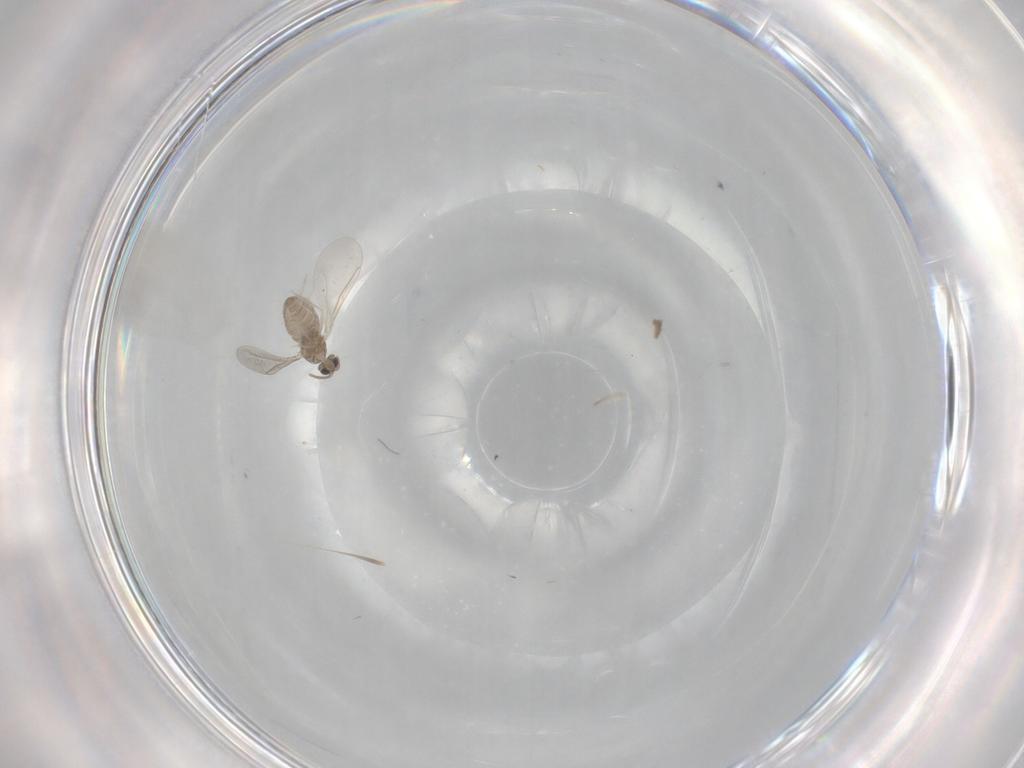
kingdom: Animalia
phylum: Arthropoda
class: Insecta
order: Diptera
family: Cecidomyiidae
